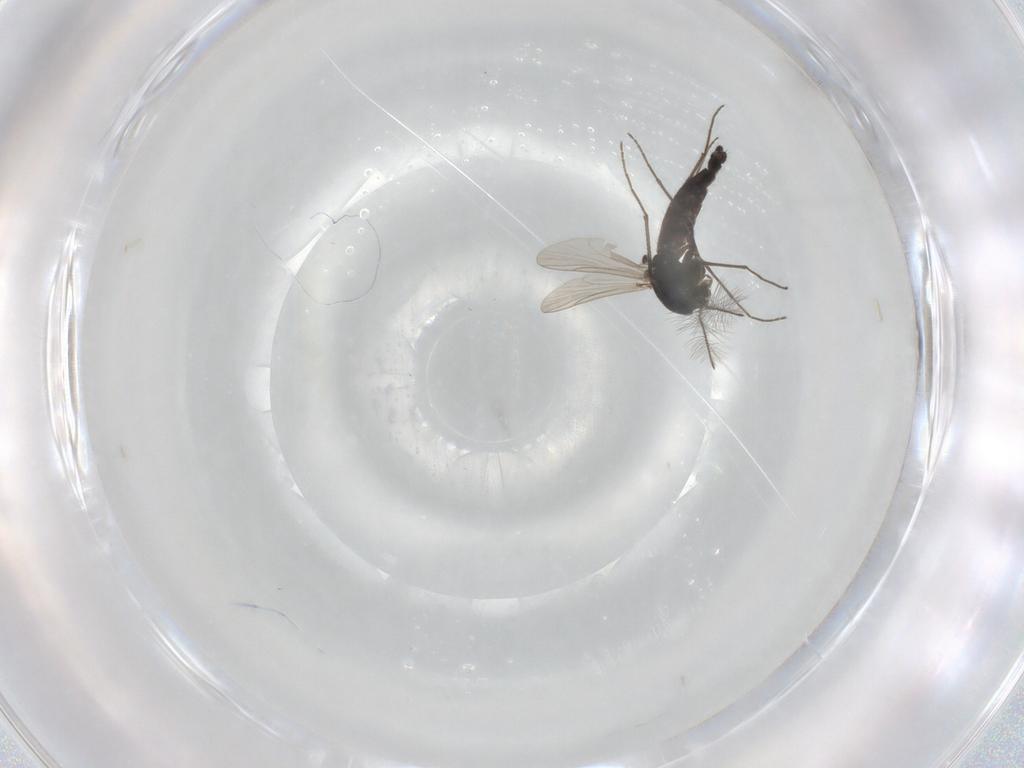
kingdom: Animalia
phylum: Arthropoda
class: Insecta
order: Diptera
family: Chironomidae
